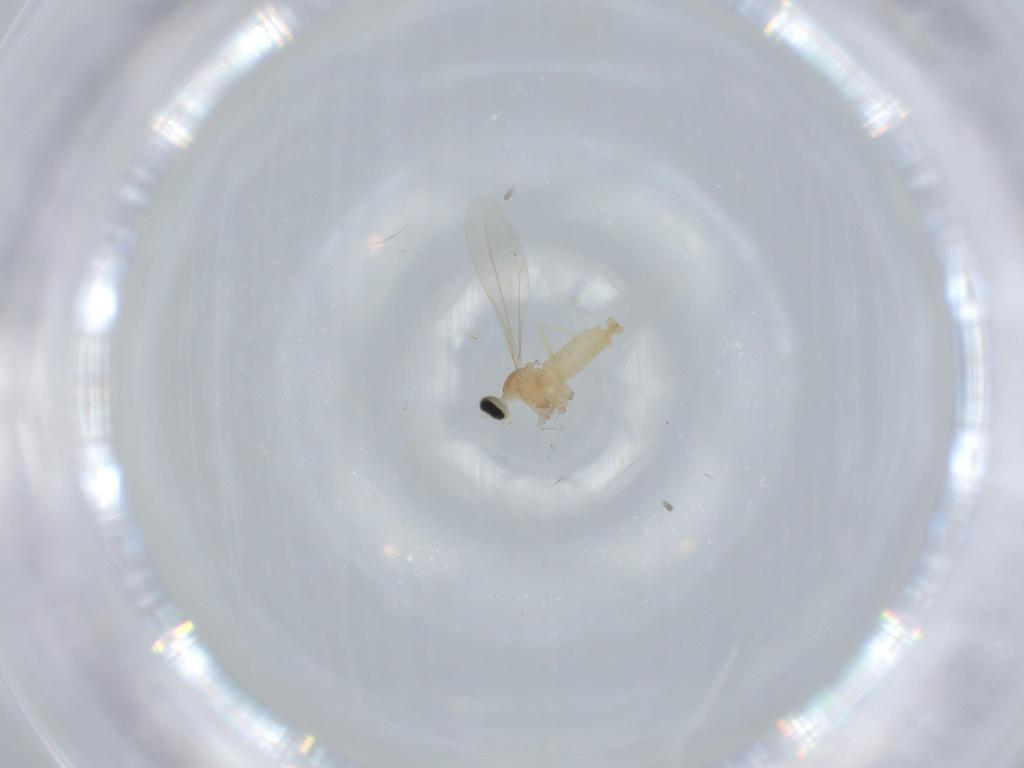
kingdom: Animalia
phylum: Arthropoda
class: Insecta
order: Diptera
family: Cecidomyiidae
